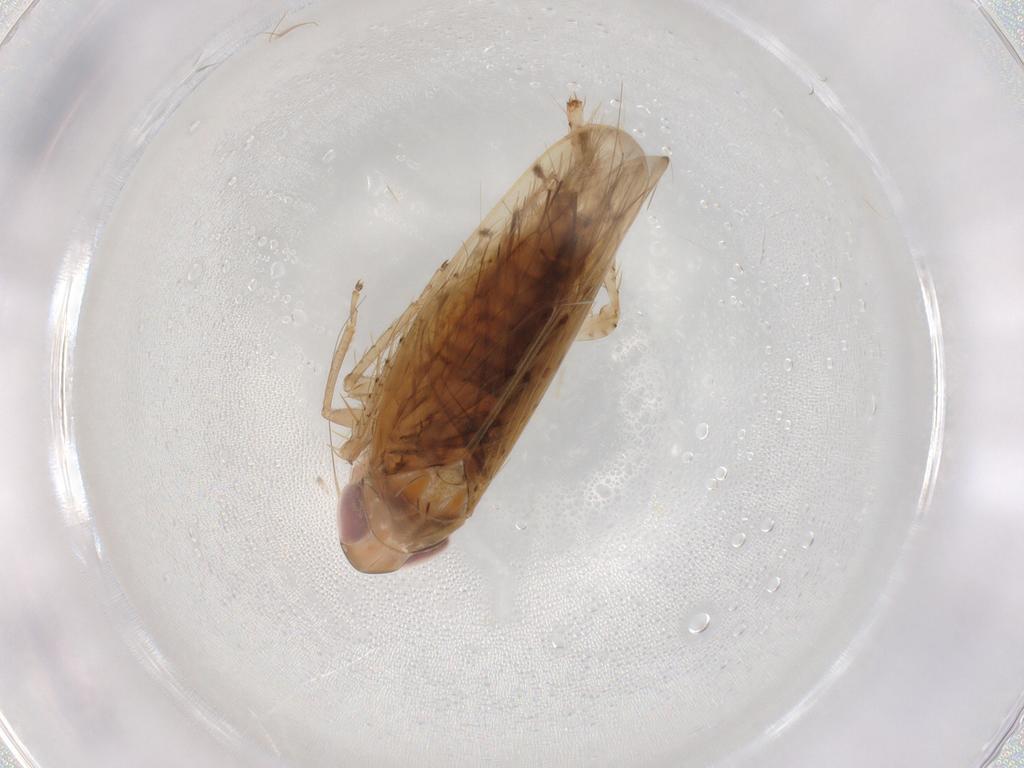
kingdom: Animalia
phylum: Arthropoda
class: Insecta
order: Hemiptera
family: Cicadellidae
